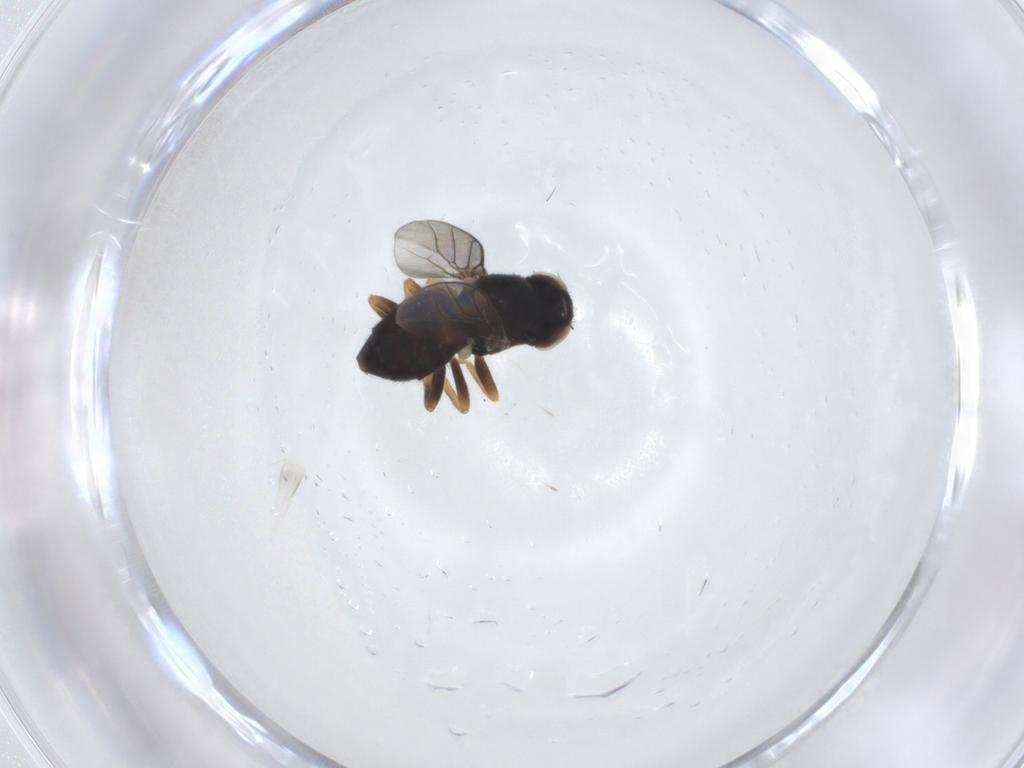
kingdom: Animalia
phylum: Arthropoda
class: Insecta
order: Diptera
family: Chloropidae
